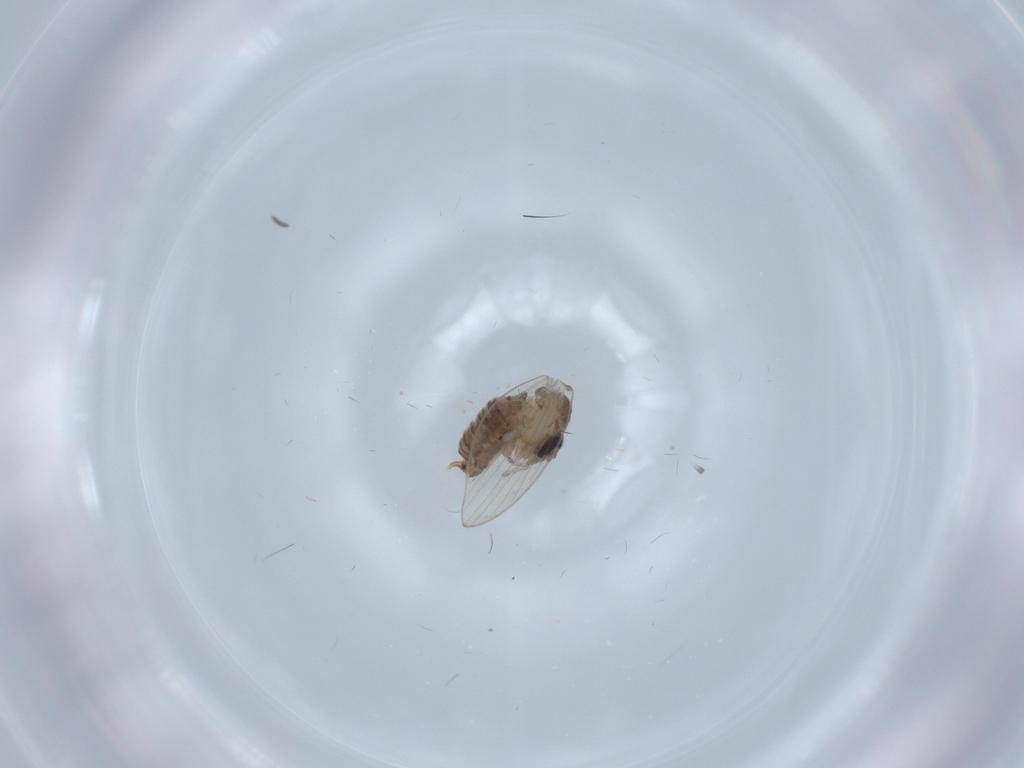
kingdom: Animalia
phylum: Arthropoda
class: Insecta
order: Diptera
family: Psychodidae
